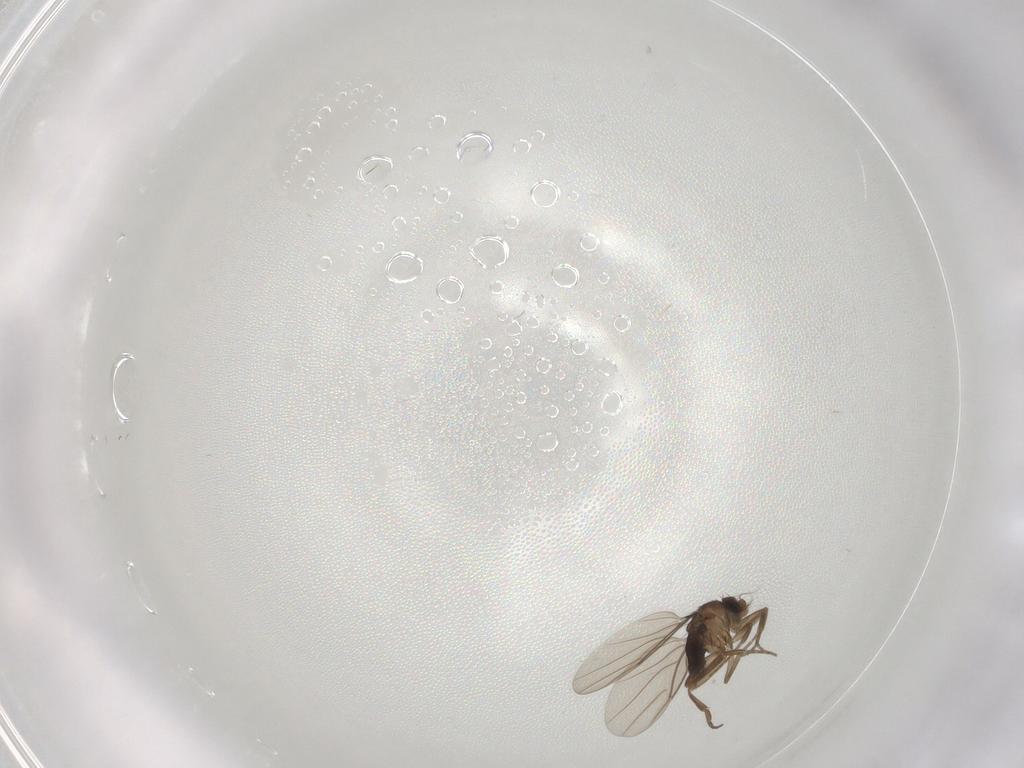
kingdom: Animalia
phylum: Arthropoda
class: Insecta
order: Diptera
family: Phoridae
